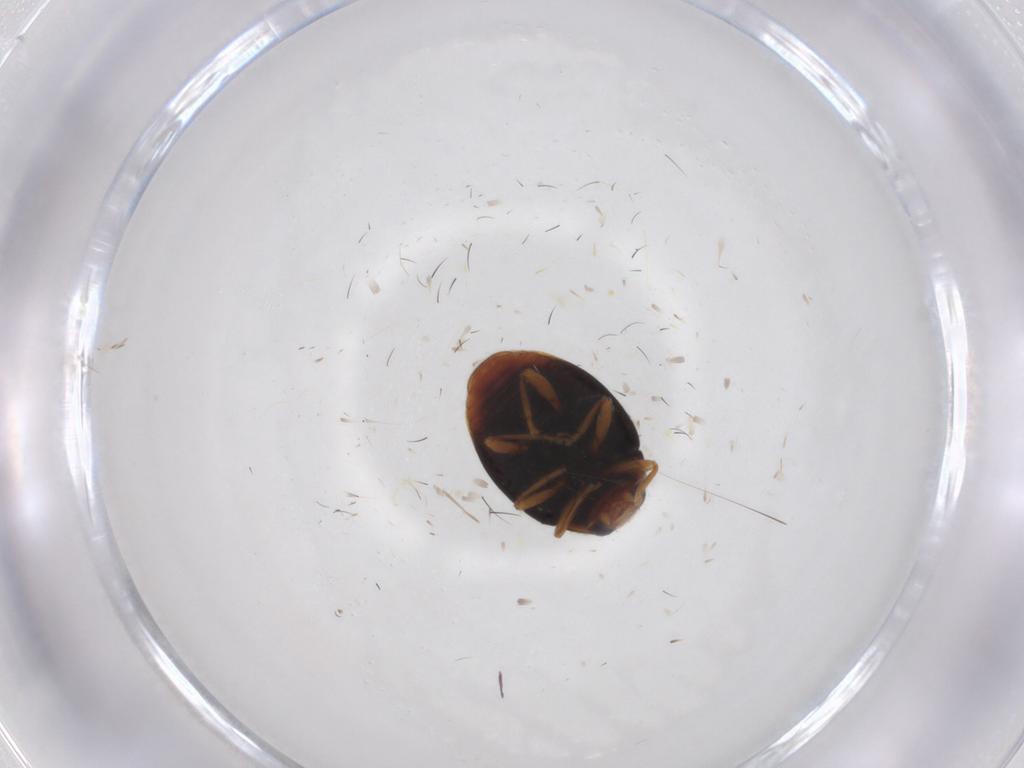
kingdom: Animalia
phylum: Arthropoda
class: Insecta
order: Coleoptera
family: Coccinellidae
